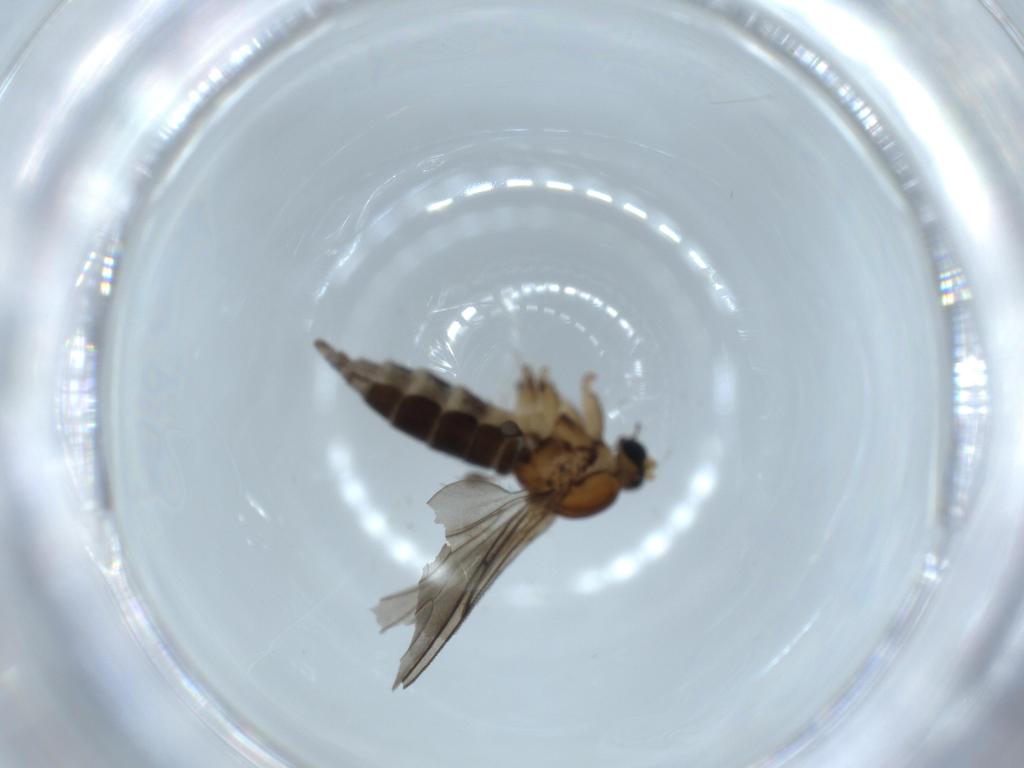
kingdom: Animalia
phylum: Arthropoda
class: Insecta
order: Diptera
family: Sciaridae
